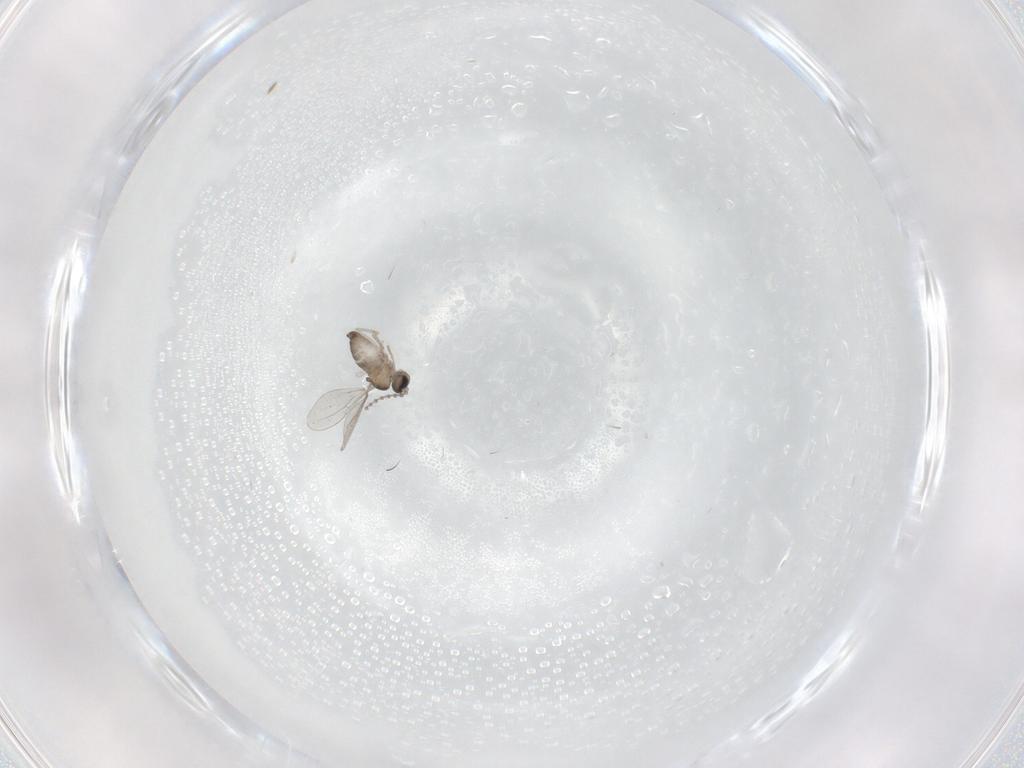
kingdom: Animalia
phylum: Arthropoda
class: Insecta
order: Diptera
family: Cecidomyiidae
